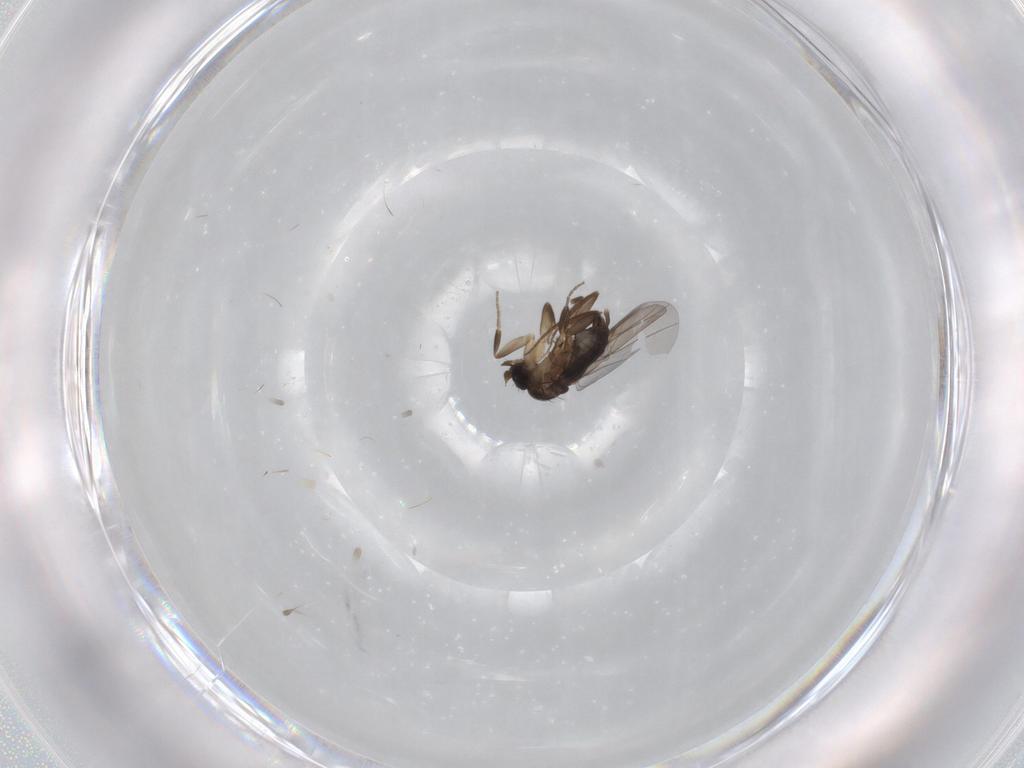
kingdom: Animalia
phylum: Arthropoda
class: Insecta
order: Diptera
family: Phoridae
